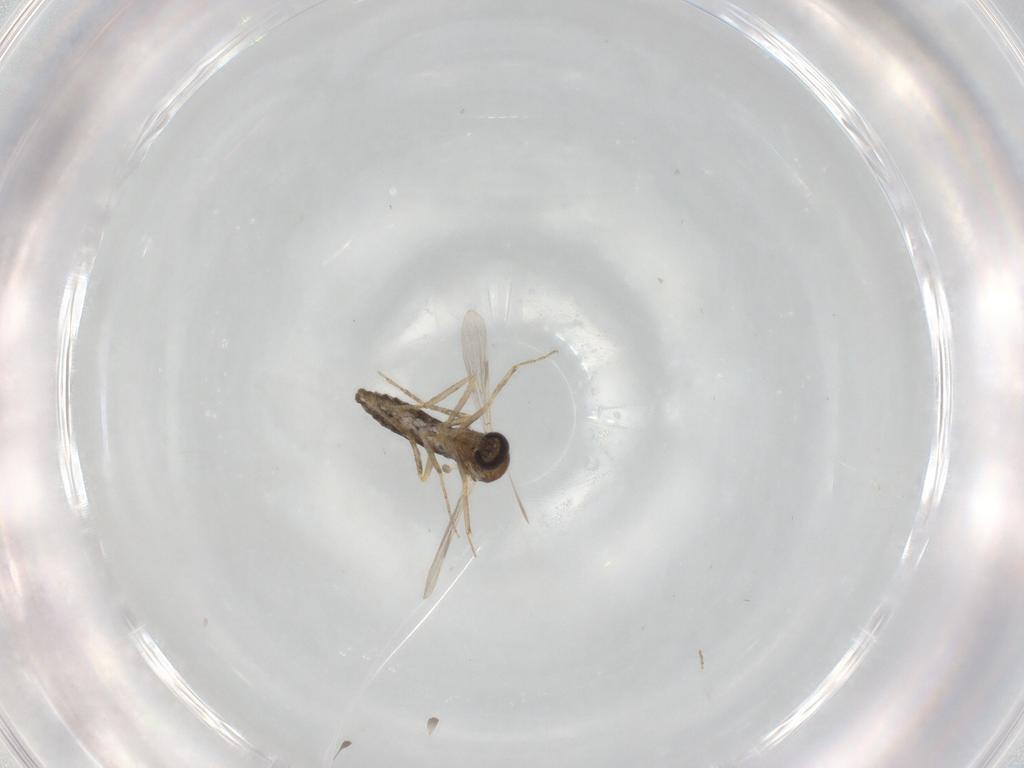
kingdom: Animalia
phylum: Arthropoda
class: Insecta
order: Diptera
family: Ceratopogonidae
